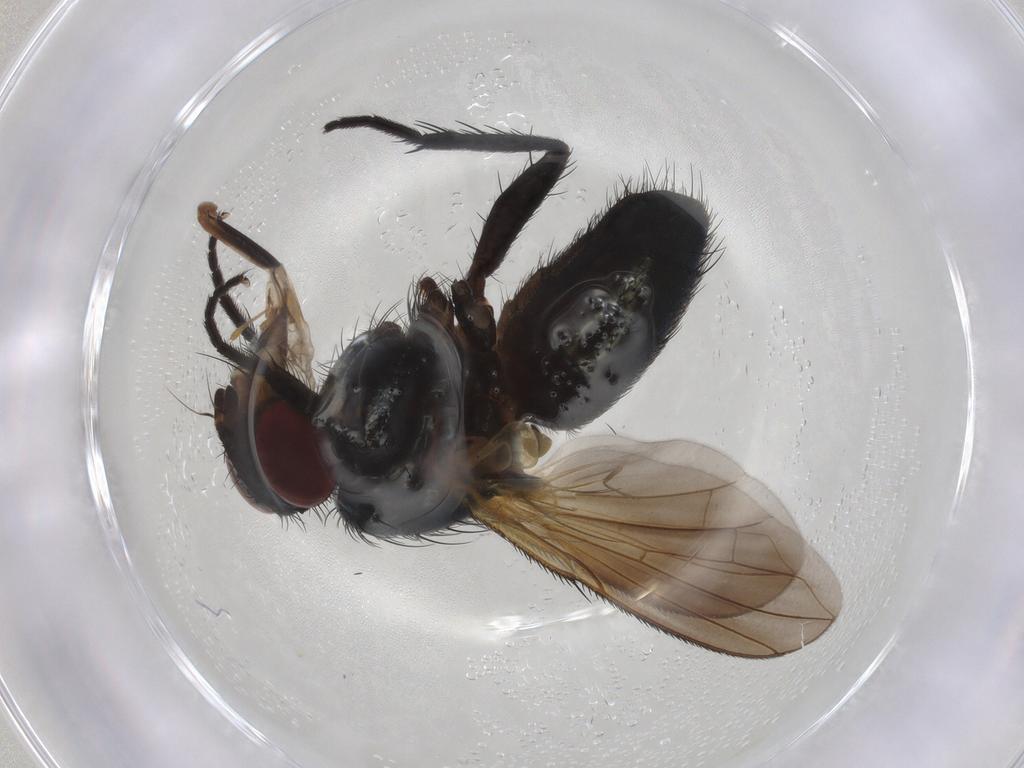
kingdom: Animalia
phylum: Arthropoda
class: Insecta
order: Diptera
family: Calliphoridae
